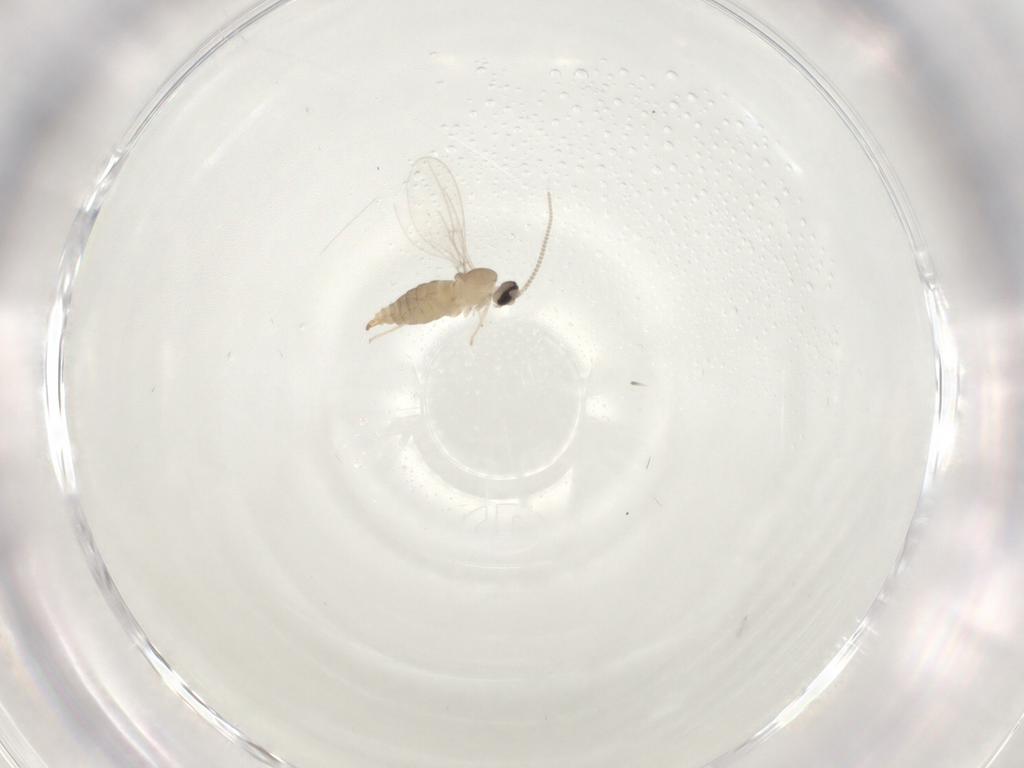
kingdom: Animalia
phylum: Arthropoda
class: Insecta
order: Diptera
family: Cecidomyiidae
